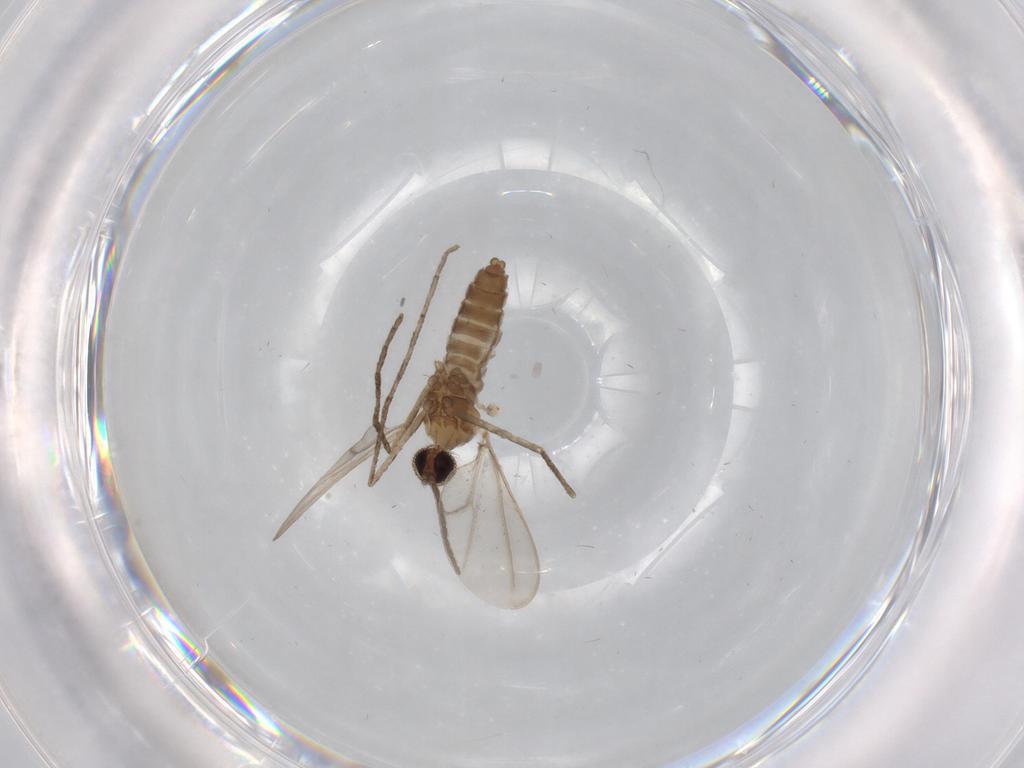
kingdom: Animalia
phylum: Arthropoda
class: Insecta
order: Diptera
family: Cecidomyiidae
